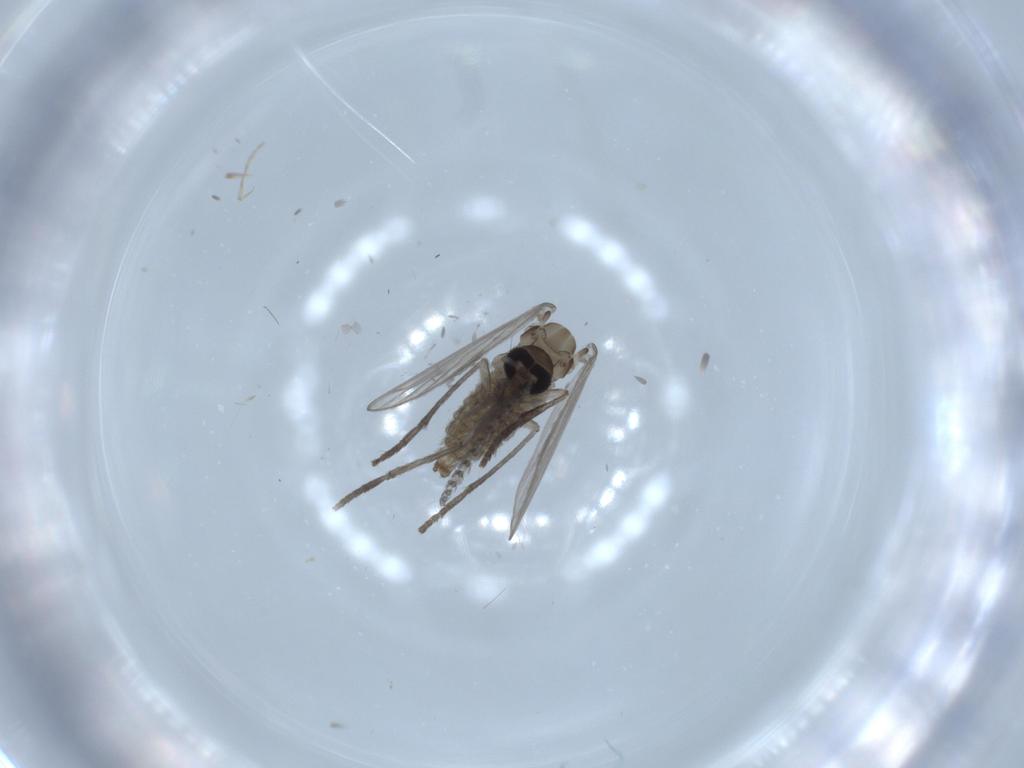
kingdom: Animalia
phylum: Arthropoda
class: Insecta
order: Diptera
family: Psychodidae
